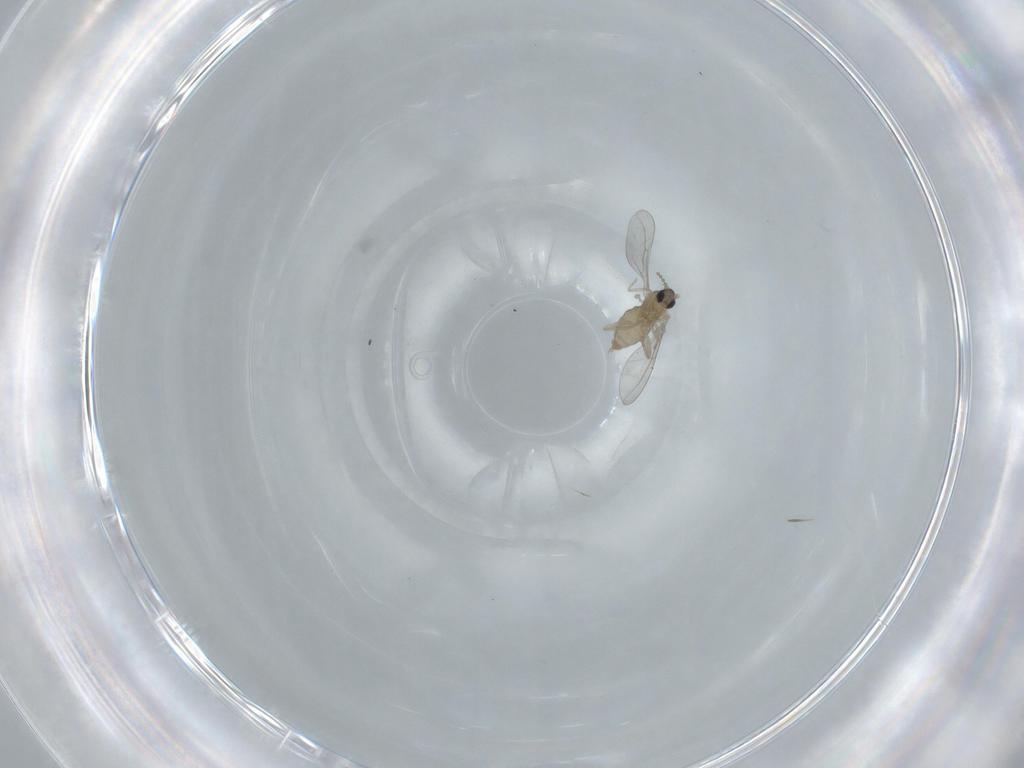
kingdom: Animalia
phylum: Arthropoda
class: Insecta
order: Diptera
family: Cecidomyiidae
